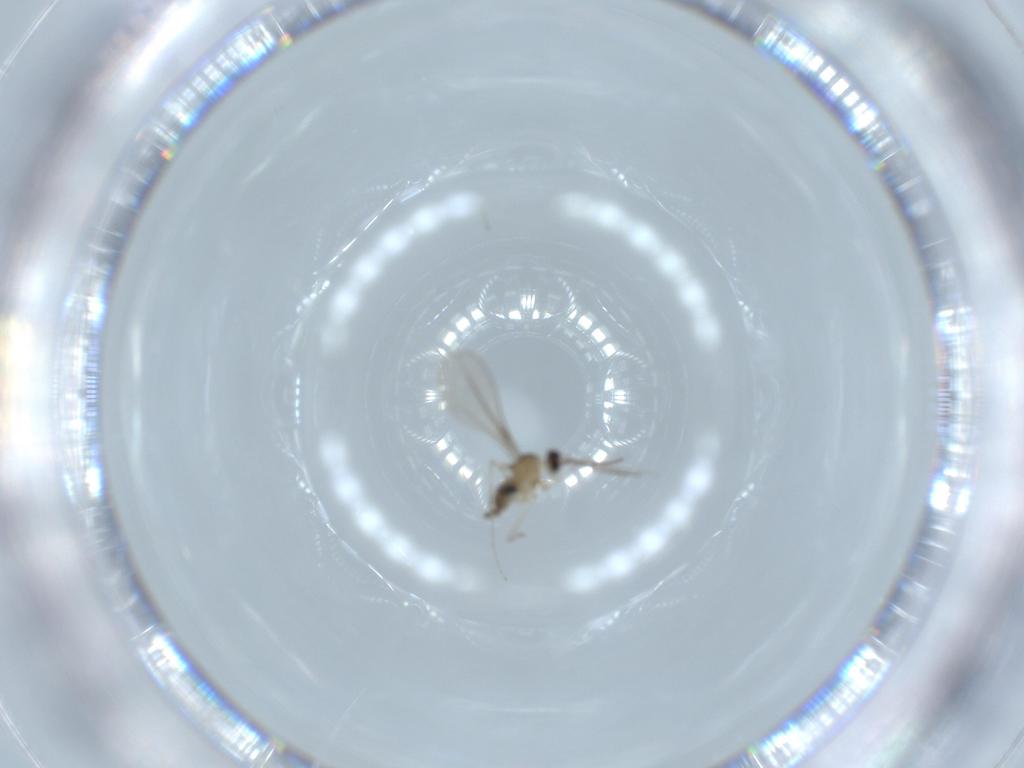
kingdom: Animalia
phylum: Arthropoda
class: Insecta
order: Diptera
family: Cecidomyiidae
